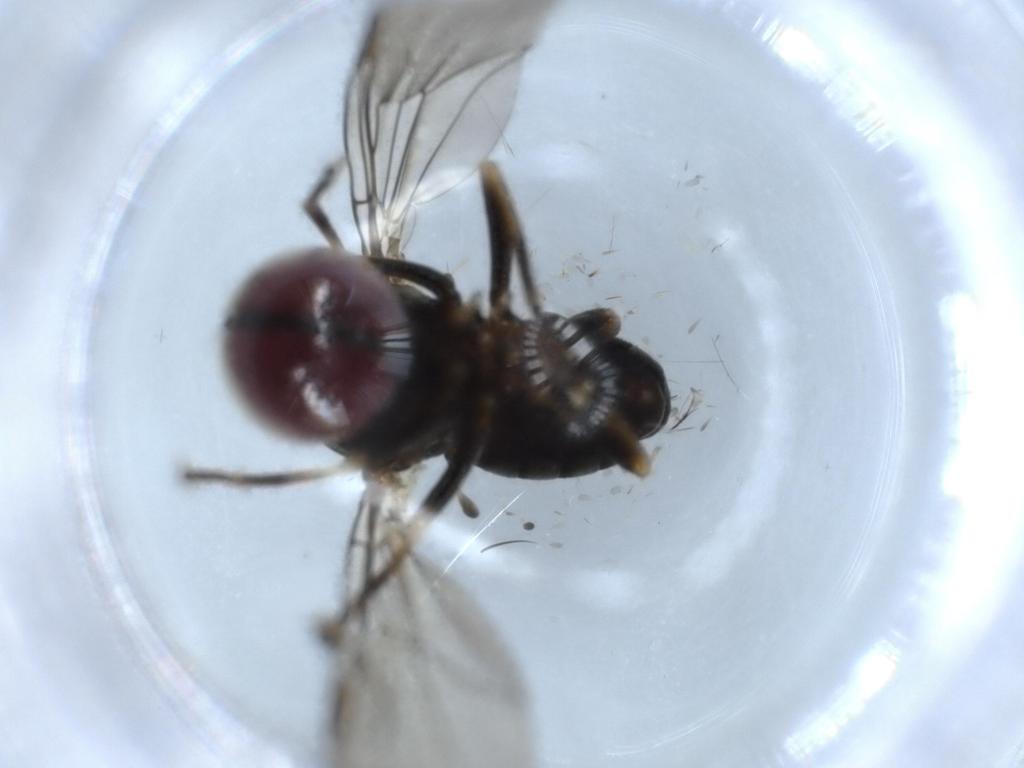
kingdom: Animalia
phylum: Arthropoda
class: Insecta
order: Diptera
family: Pipunculidae
